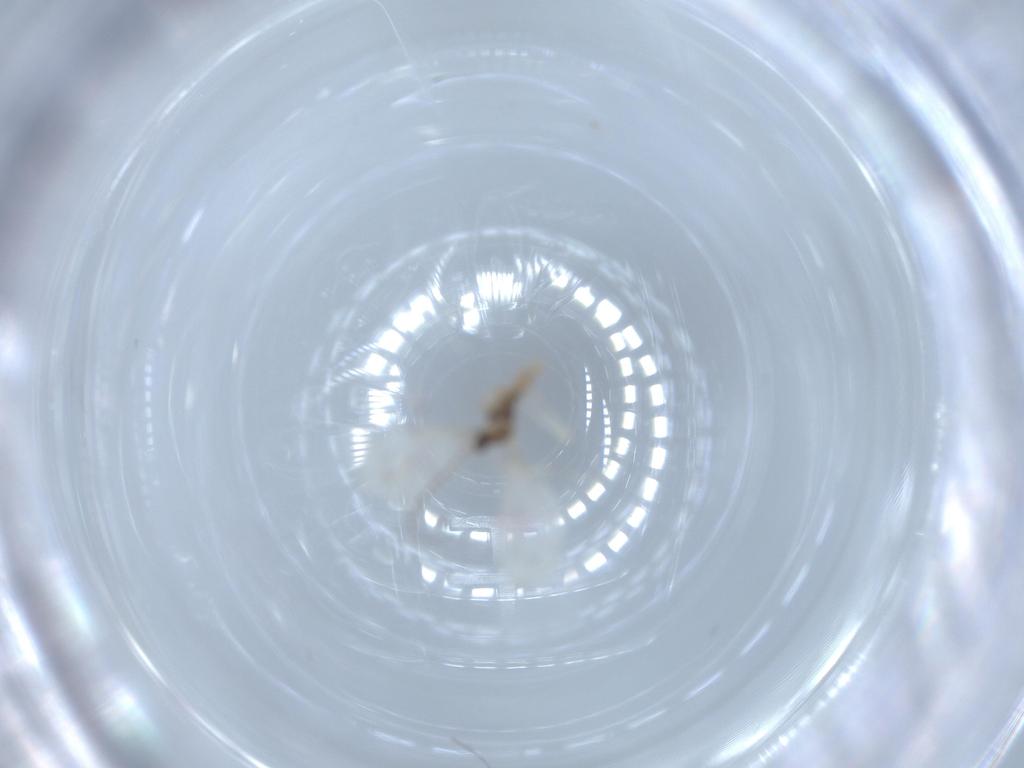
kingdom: Animalia
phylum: Arthropoda
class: Insecta
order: Diptera
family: Cecidomyiidae
